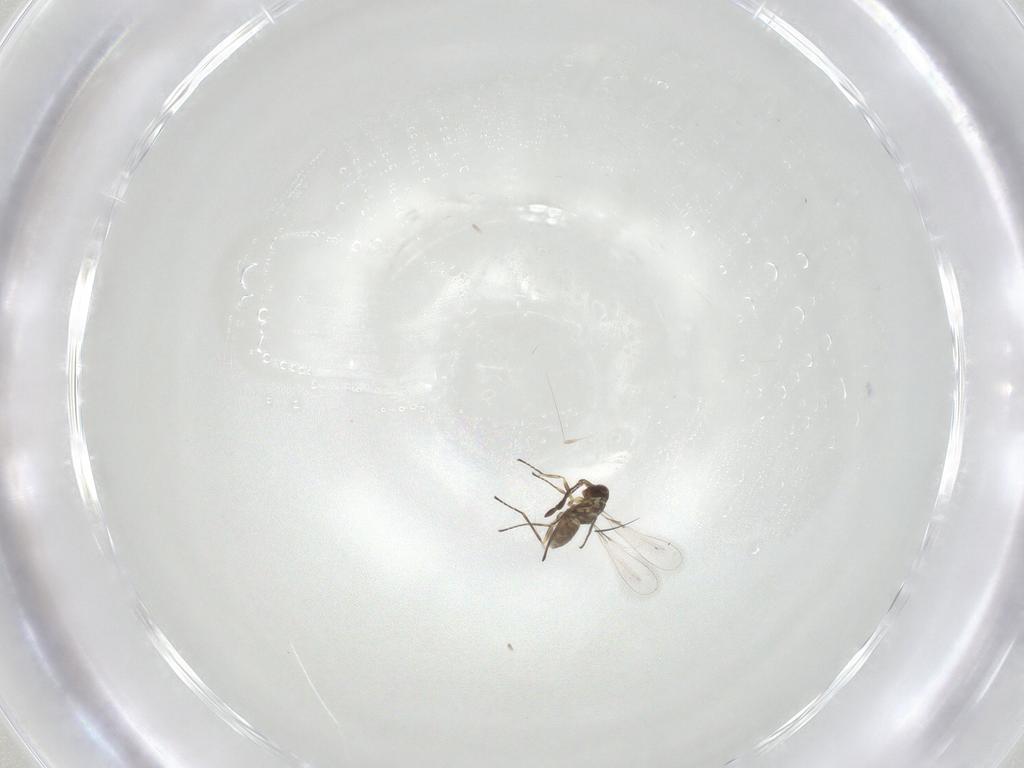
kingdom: Animalia
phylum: Arthropoda
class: Insecta
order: Hymenoptera
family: Mymaridae
